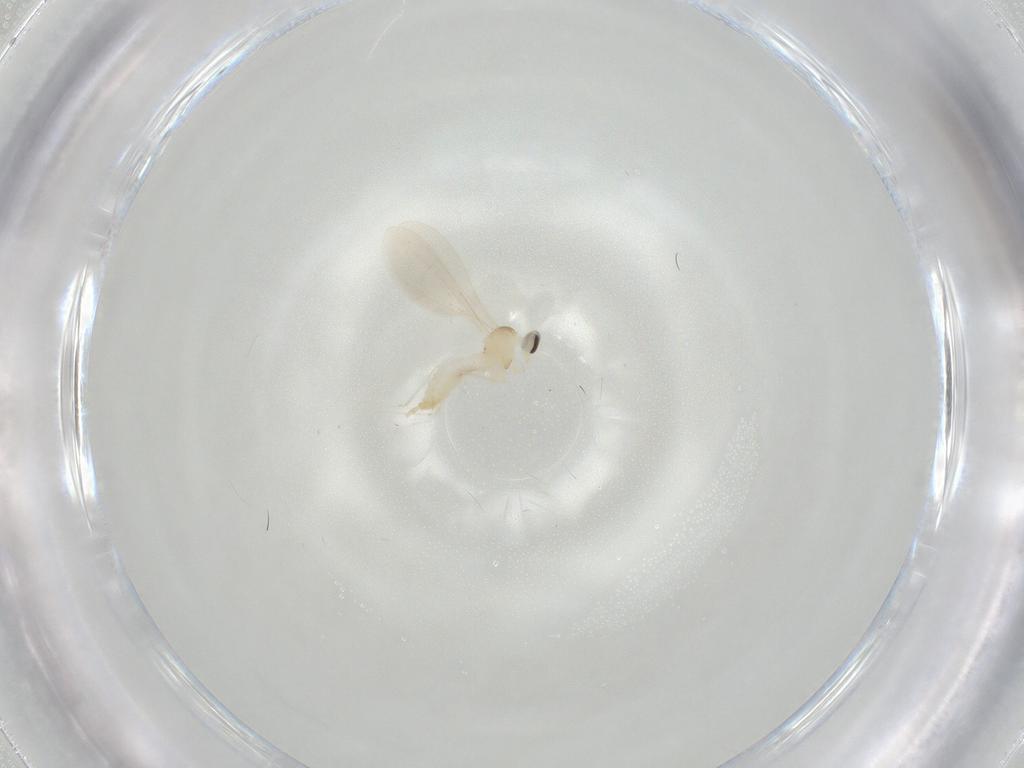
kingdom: Animalia
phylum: Arthropoda
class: Insecta
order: Diptera
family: Cecidomyiidae
